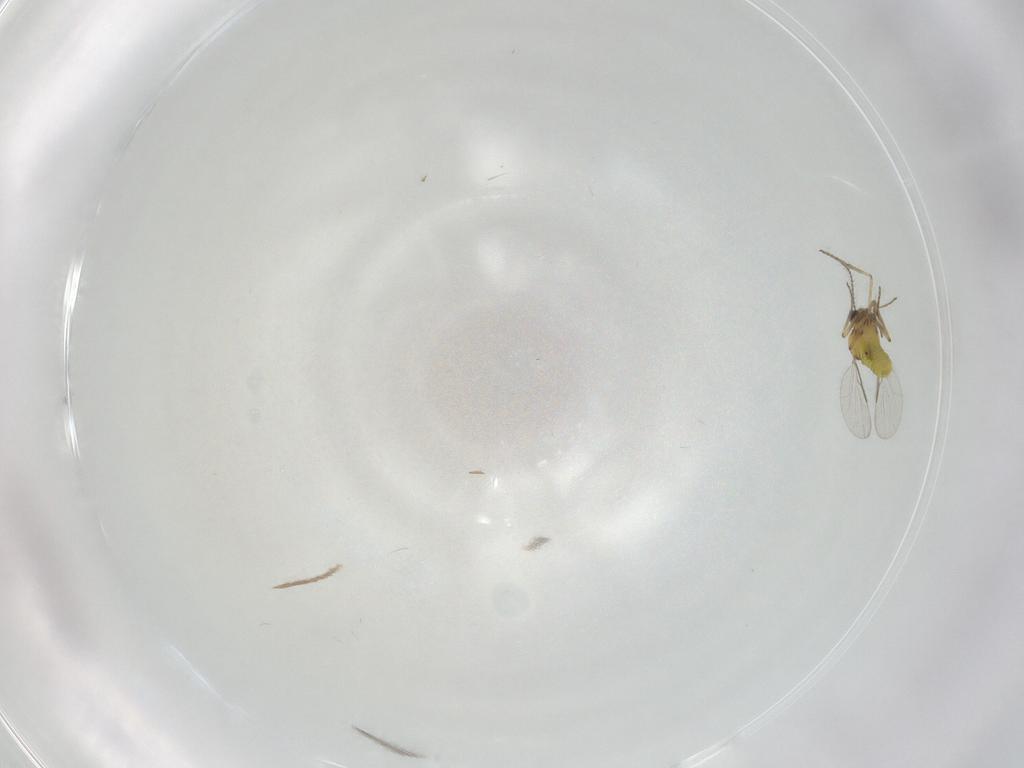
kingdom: Animalia
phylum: Arthropoda
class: Insecta
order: Diptera
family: Chironomidae
